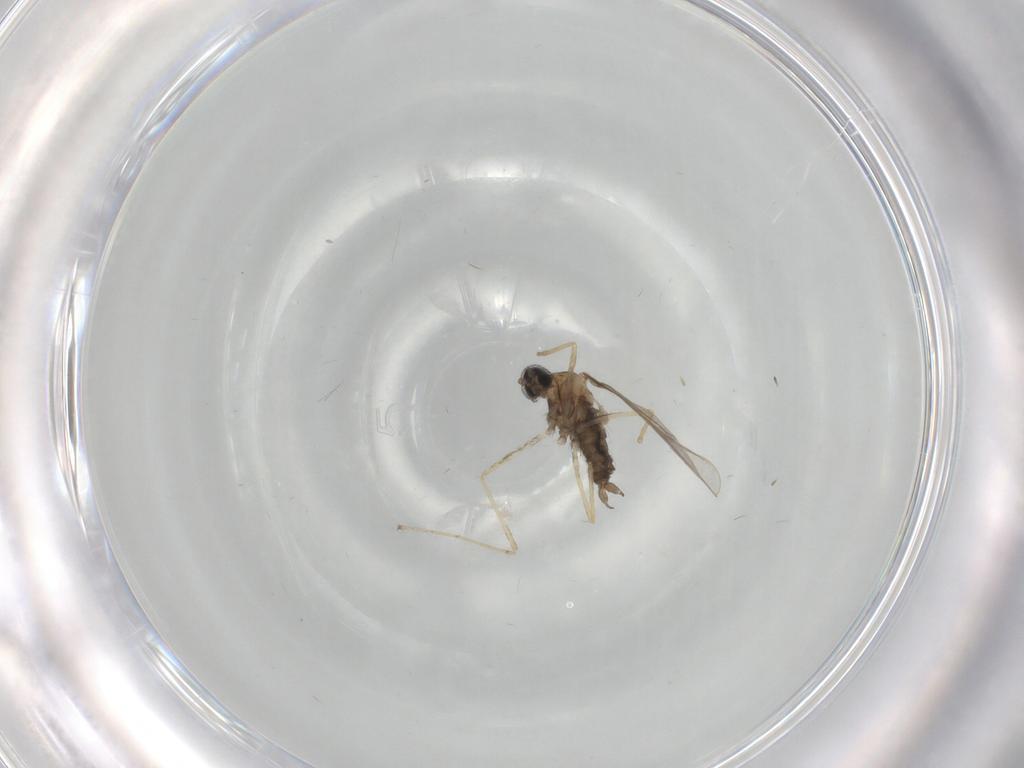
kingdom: Animalia
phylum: Arthropoda
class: Insecta
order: Diptera
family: Cecidomyiidae
